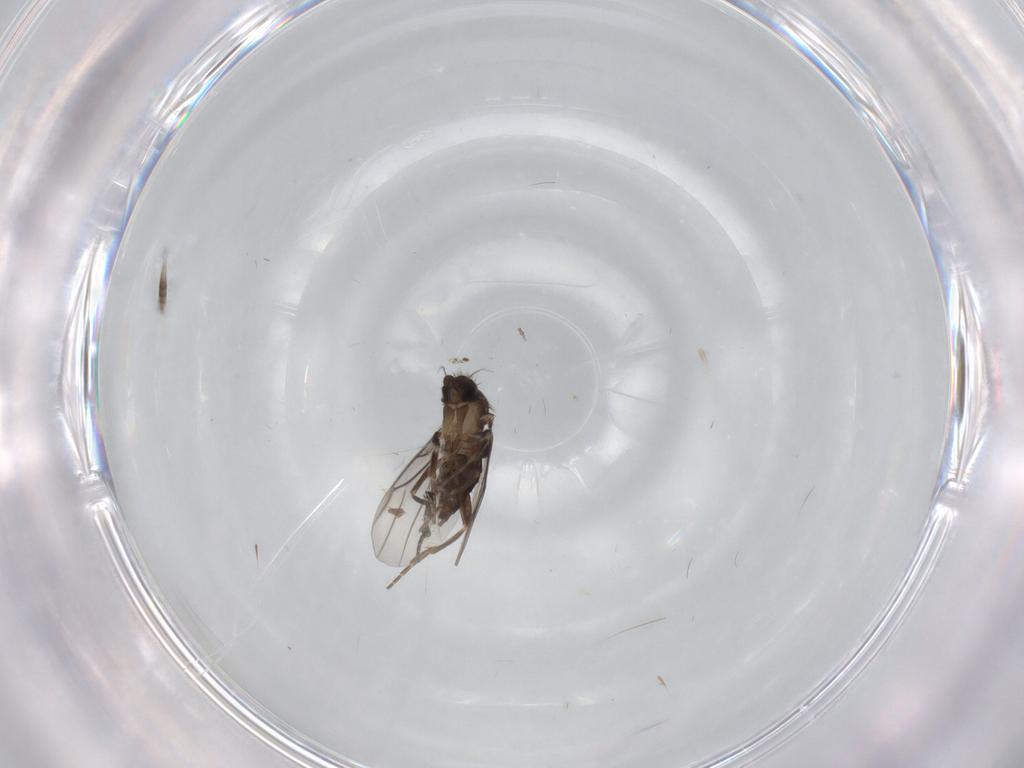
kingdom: Animalia
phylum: Arthropoda
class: Insecta
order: Diptera
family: Phoridae
